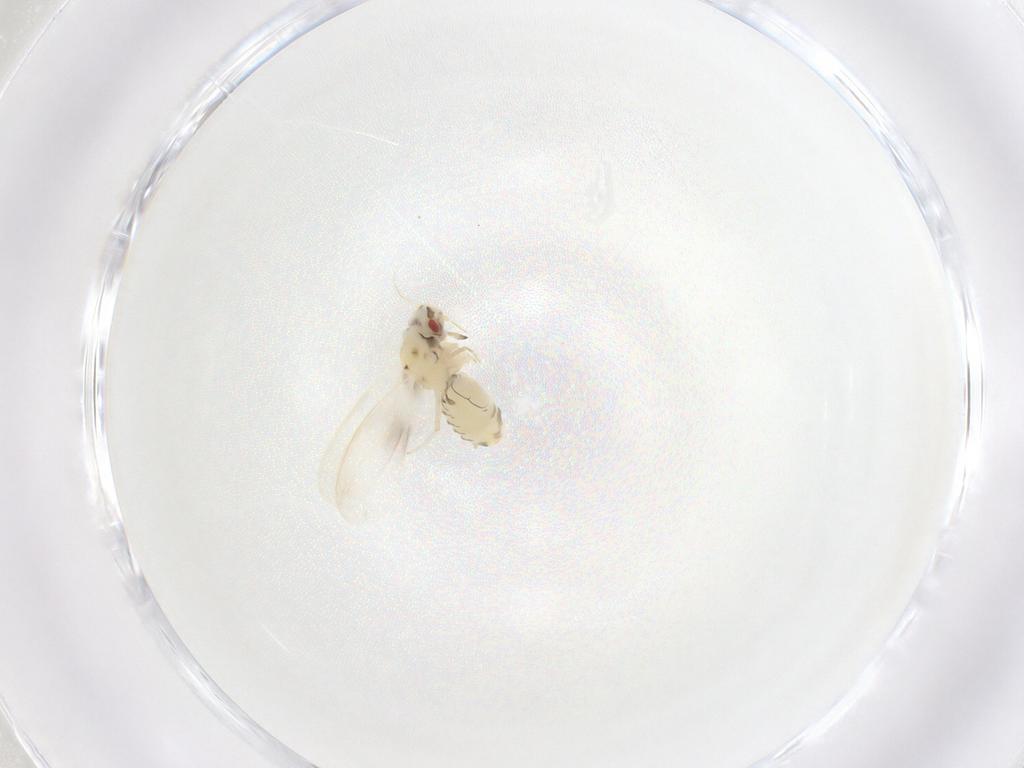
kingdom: Animalia
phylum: Arthropoda
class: Insecta
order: Hemiptera
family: Aleyrodidae
